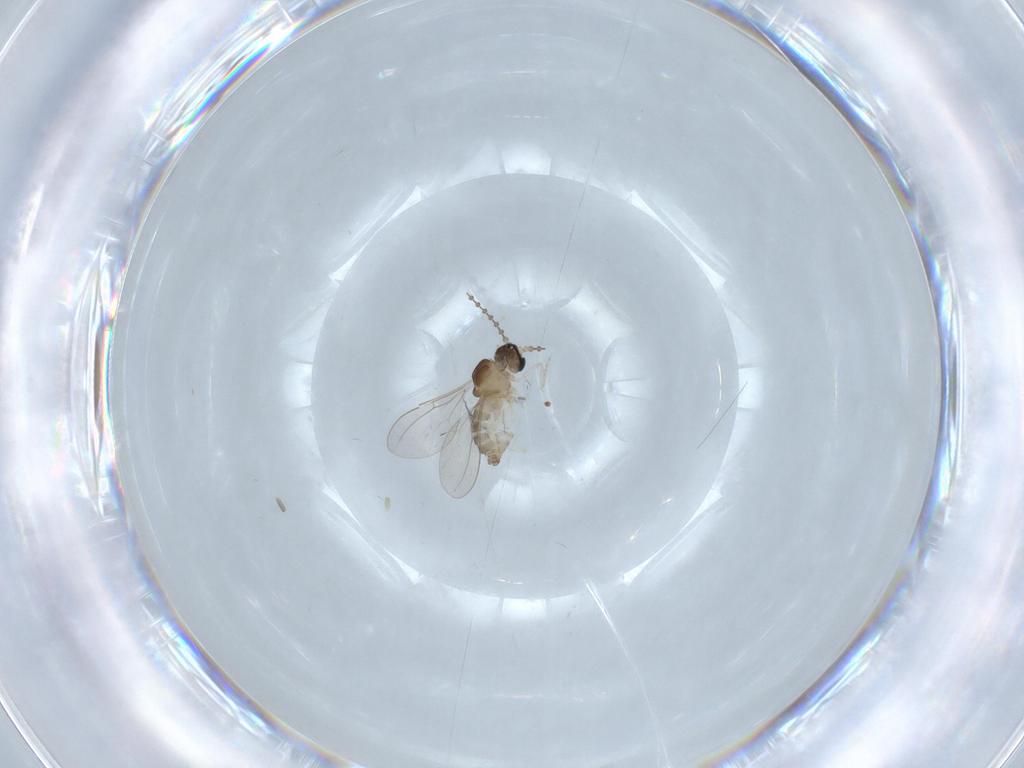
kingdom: Animalia
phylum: Arthropoda
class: Insecta
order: Diptera
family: Cecidomyiidae
